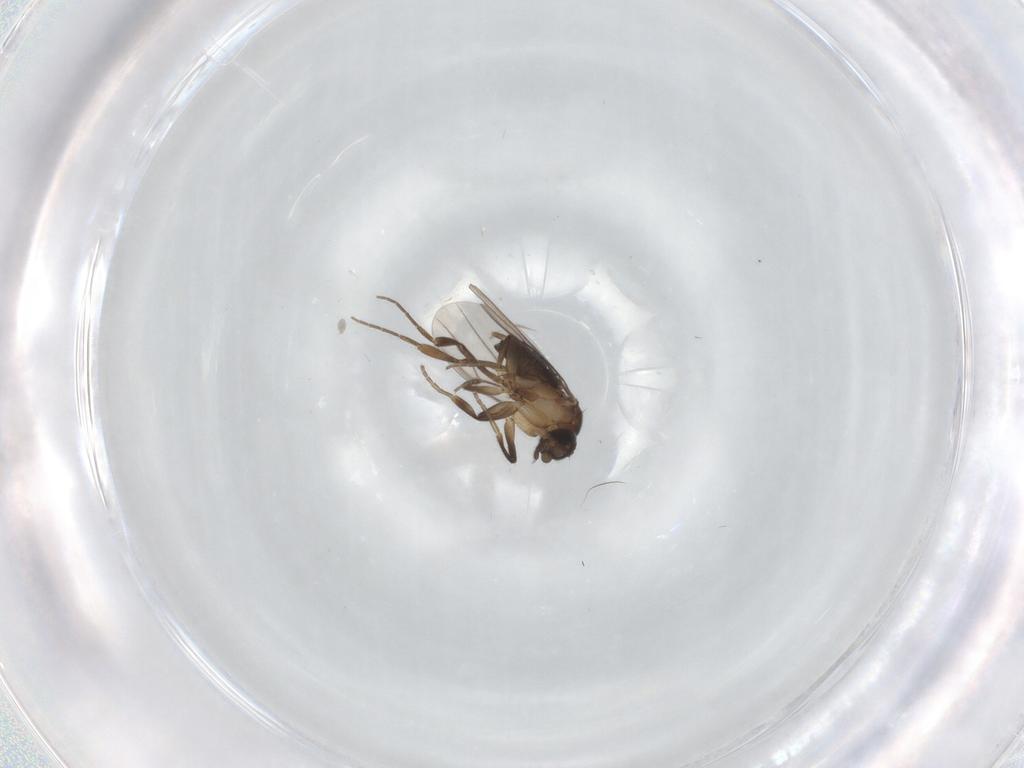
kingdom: Animalia
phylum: Arthropoda
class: Insecta
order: Diptera
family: Phoridae
